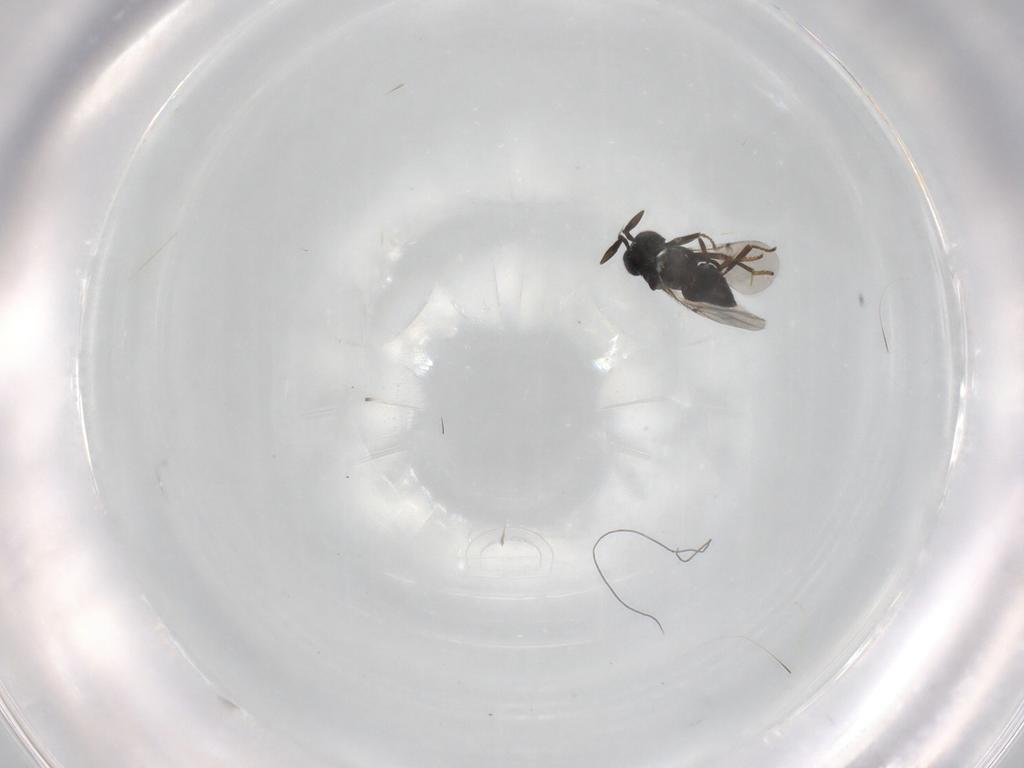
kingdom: Animalia
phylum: Arthropoda
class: Insecta
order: Hymenoptera
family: Encyrtidae
